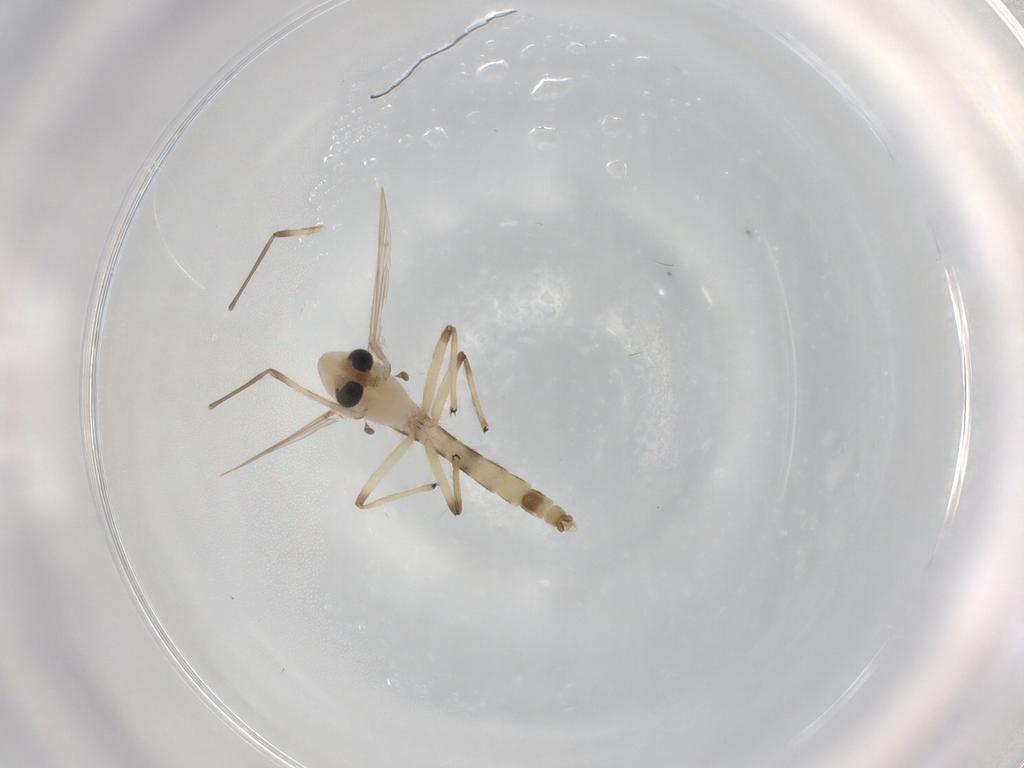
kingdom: Animalia
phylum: Arthropoda
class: Insecta
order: Diptera
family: Chironomidae
